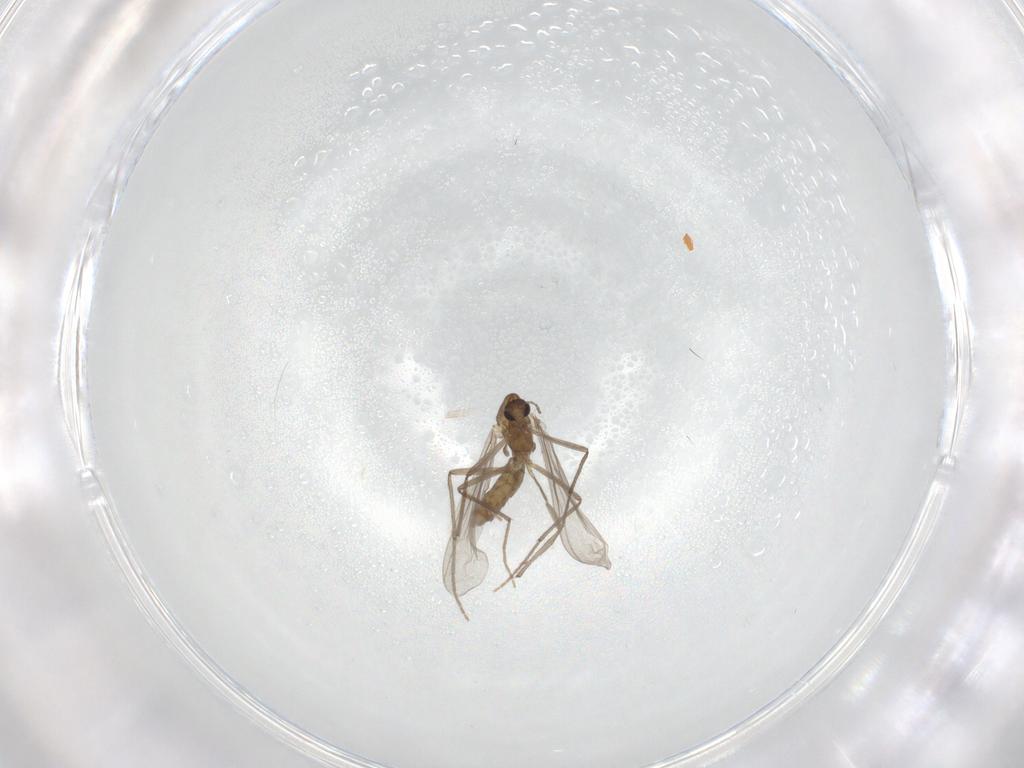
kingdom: Animalia
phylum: Arthropoda
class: Insecta
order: Diptera
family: Chironomidae
